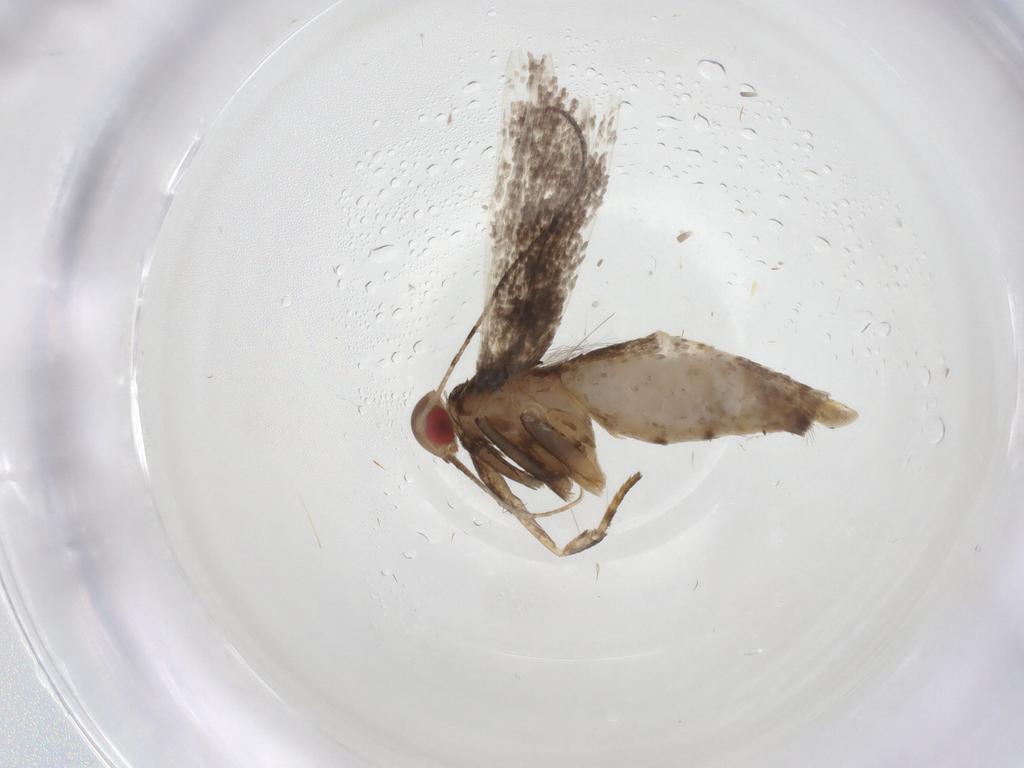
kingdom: Animalia
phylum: Arthropoda
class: Insecta
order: Lepidoptera
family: Gelechiidae
